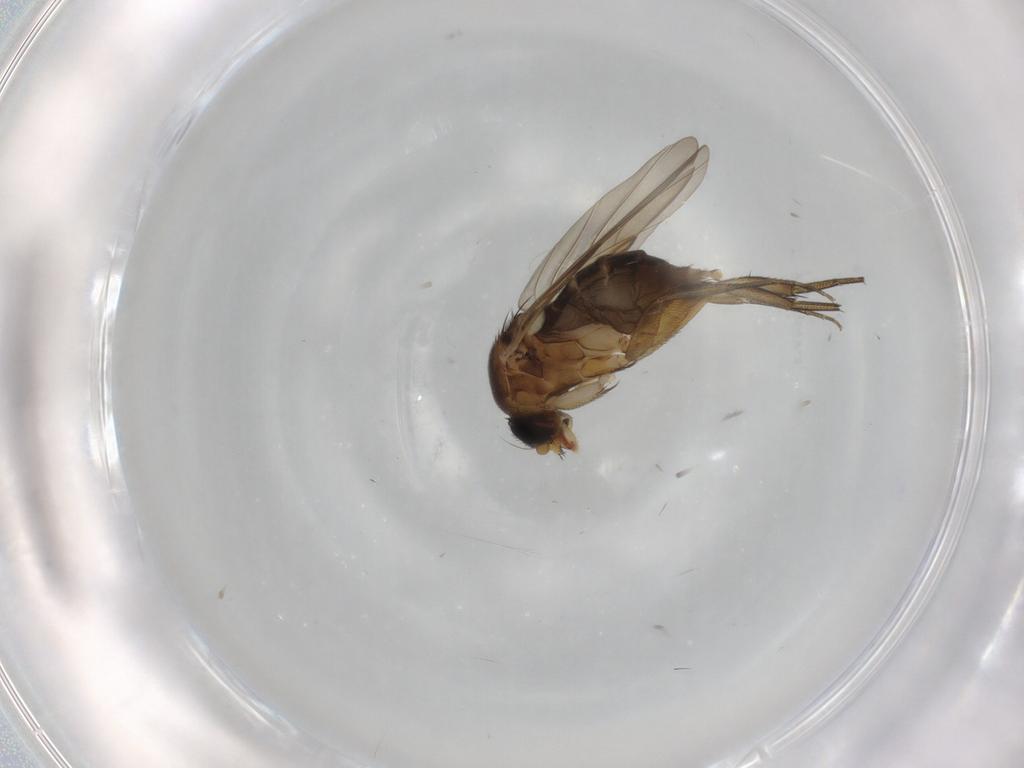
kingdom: Animalia
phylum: Arthropoda
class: Insecta
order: Diptera
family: Phoridae
